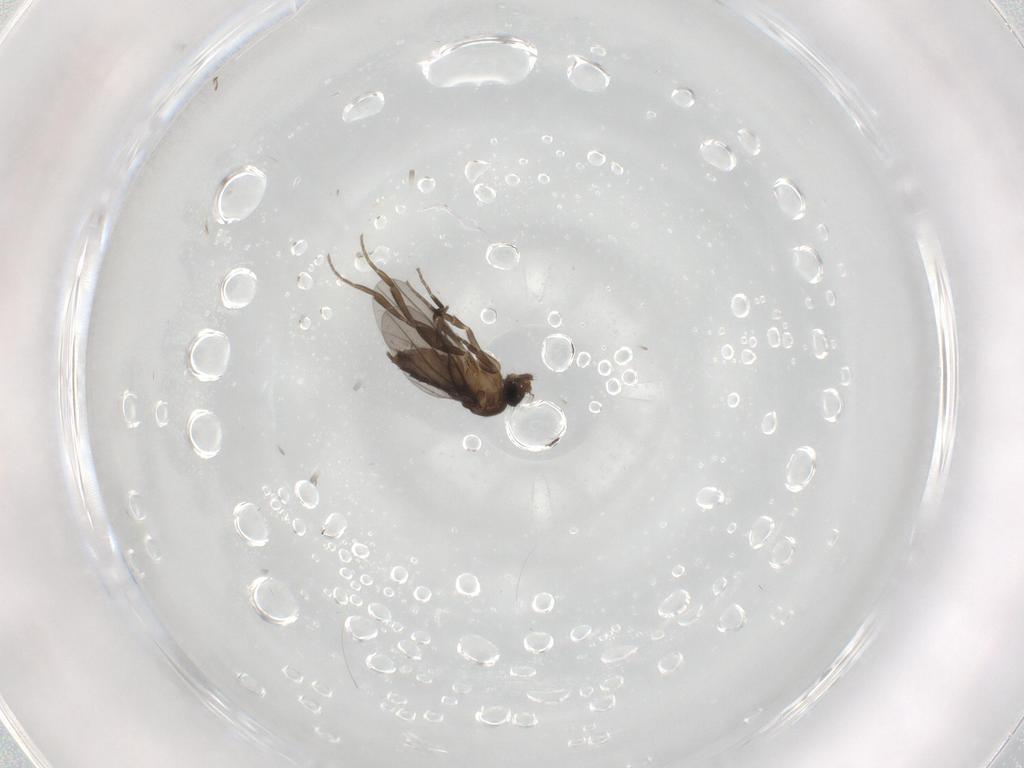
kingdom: Animalia
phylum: Arthropoda
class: Insecta
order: Diptera
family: Phoridae
